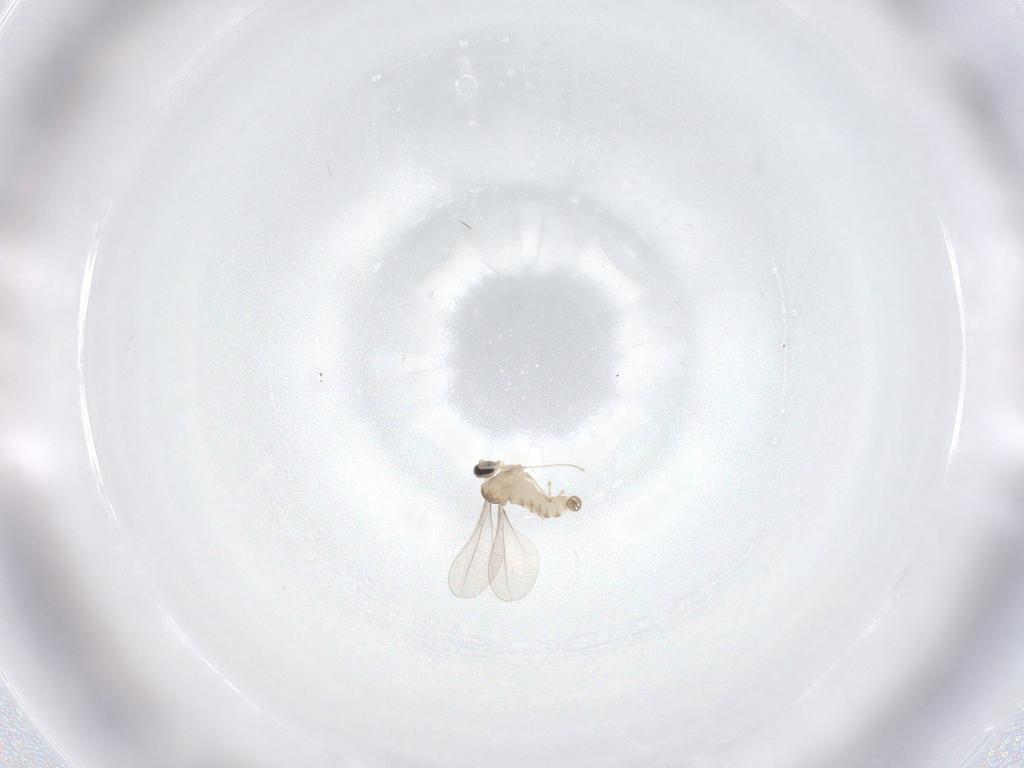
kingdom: Animalia
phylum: Arthropoda
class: Insecta
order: Diptera
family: Cecidomyiidae
